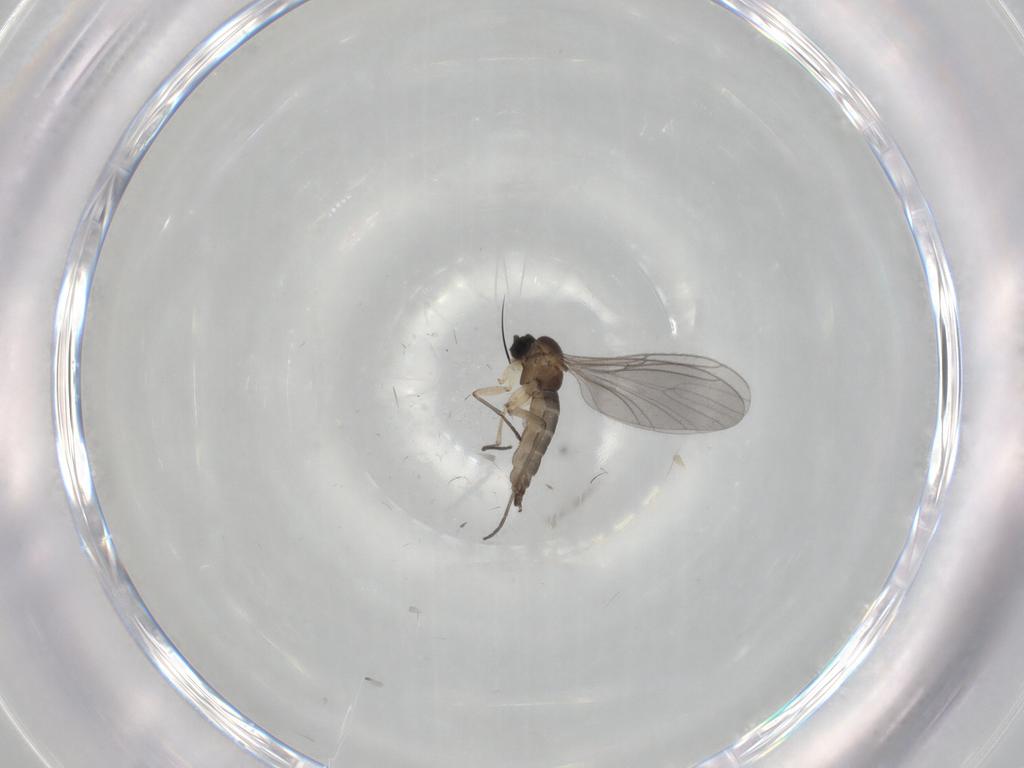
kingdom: Animalia
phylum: Arthropoda
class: Insecta
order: Diptera
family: Sciaridae
